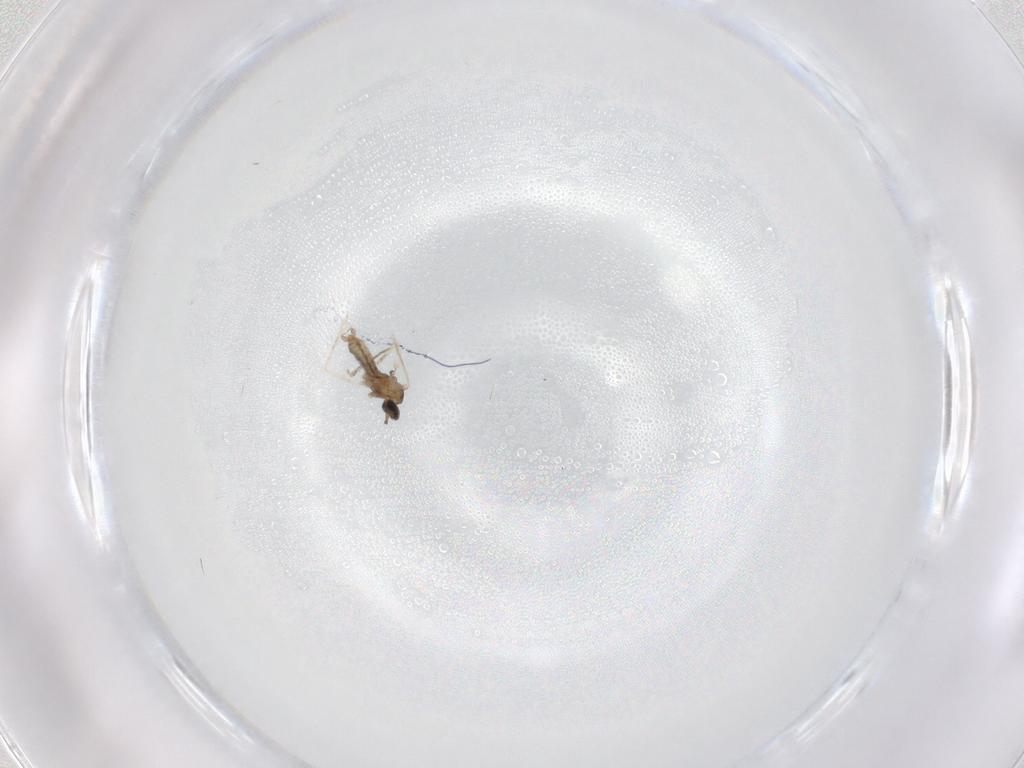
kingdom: Animalia
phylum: Arthropoda
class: Insecta
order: Diptera
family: Tabanidae
